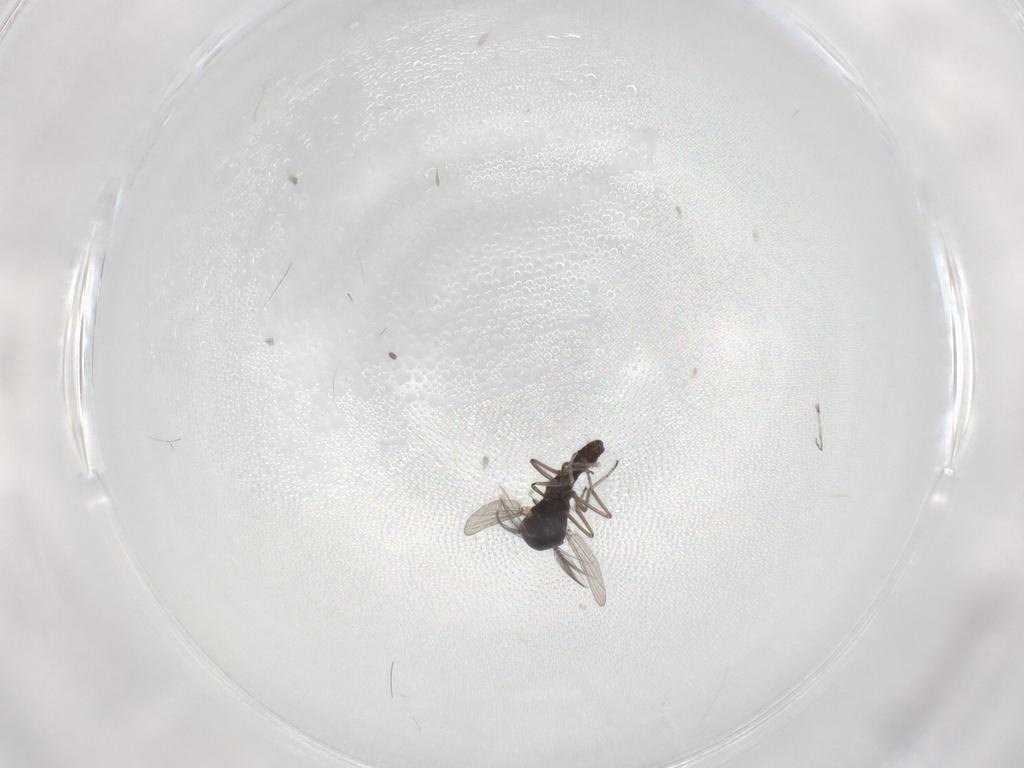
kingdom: Animalia
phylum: Arthropoda
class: Insecta
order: Diptera
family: Ceratopogonidae
